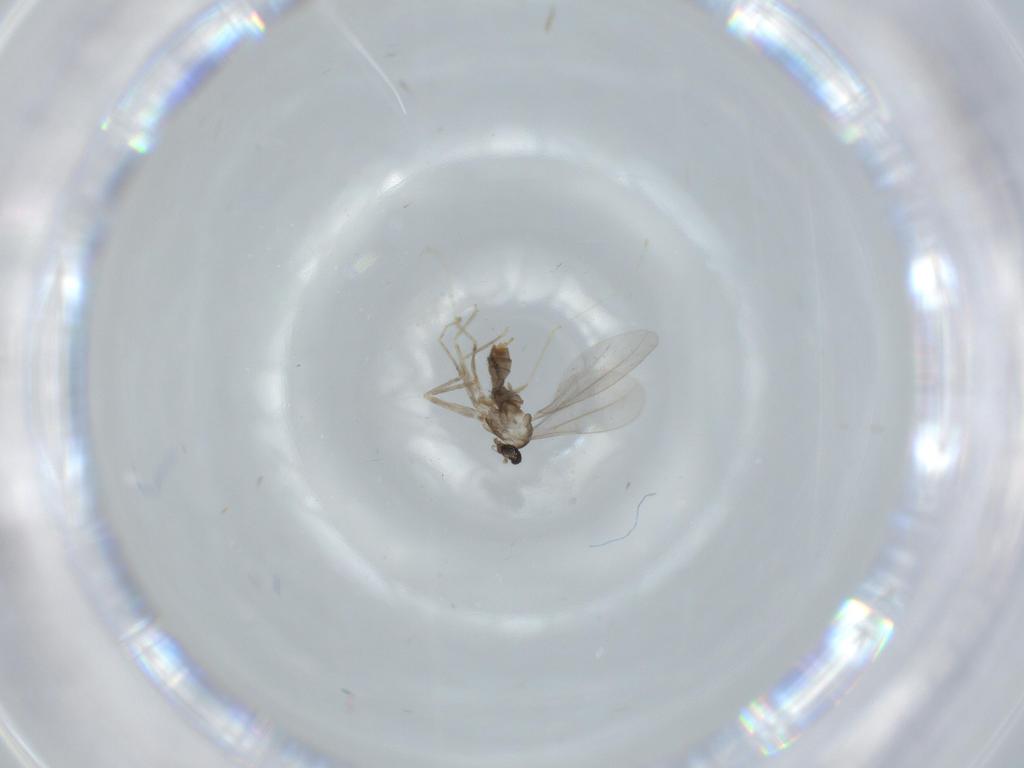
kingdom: Animalia
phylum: Arthropoda
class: Insecta
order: Diptera
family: Cecidomyiidae
